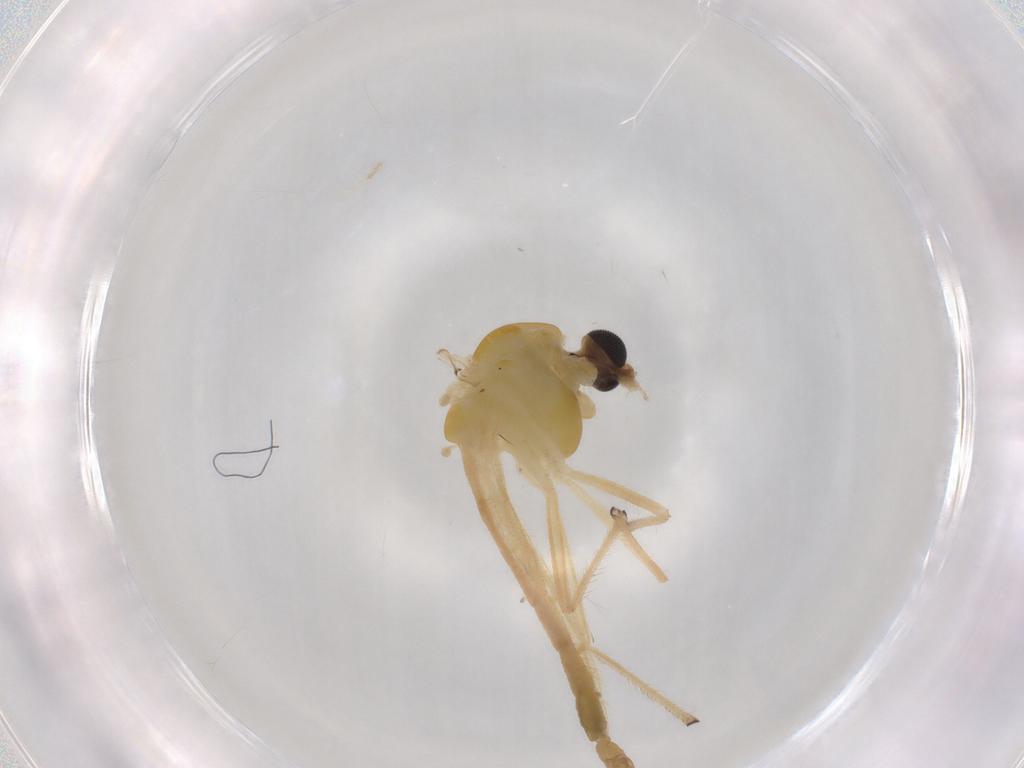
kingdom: Animalia
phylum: Arthropoda
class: Insecta
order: Diptera
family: Chironomidae
